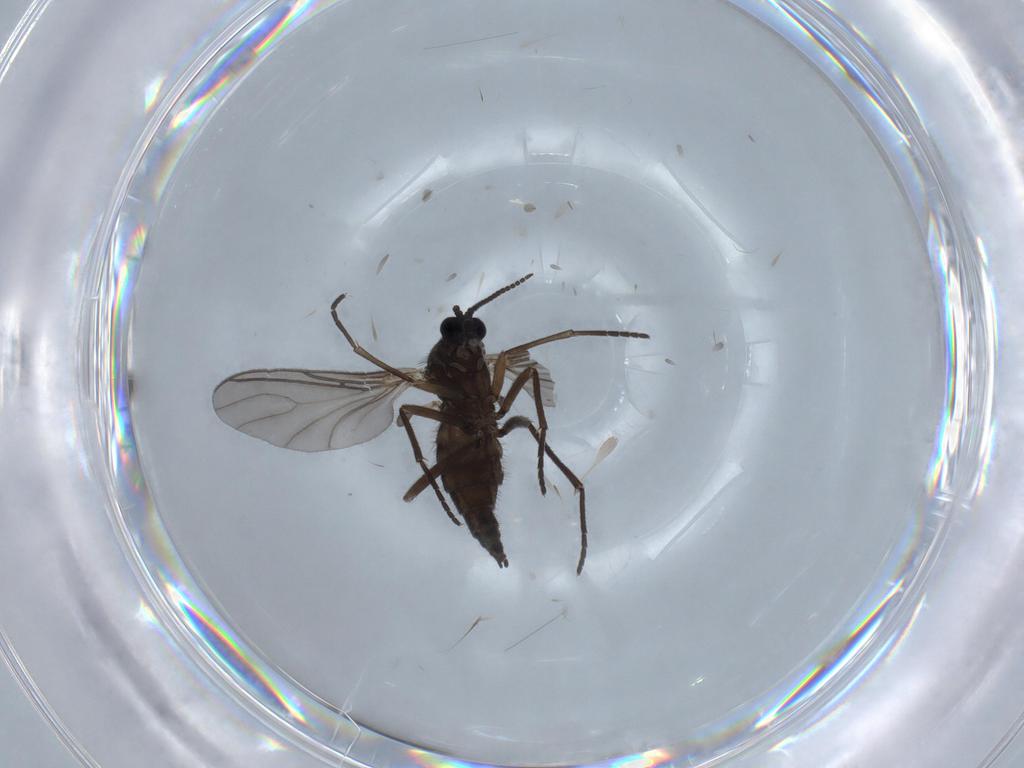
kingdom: Animalia
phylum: Arthropoda
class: Insecta
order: Diptera
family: Sciaridae
